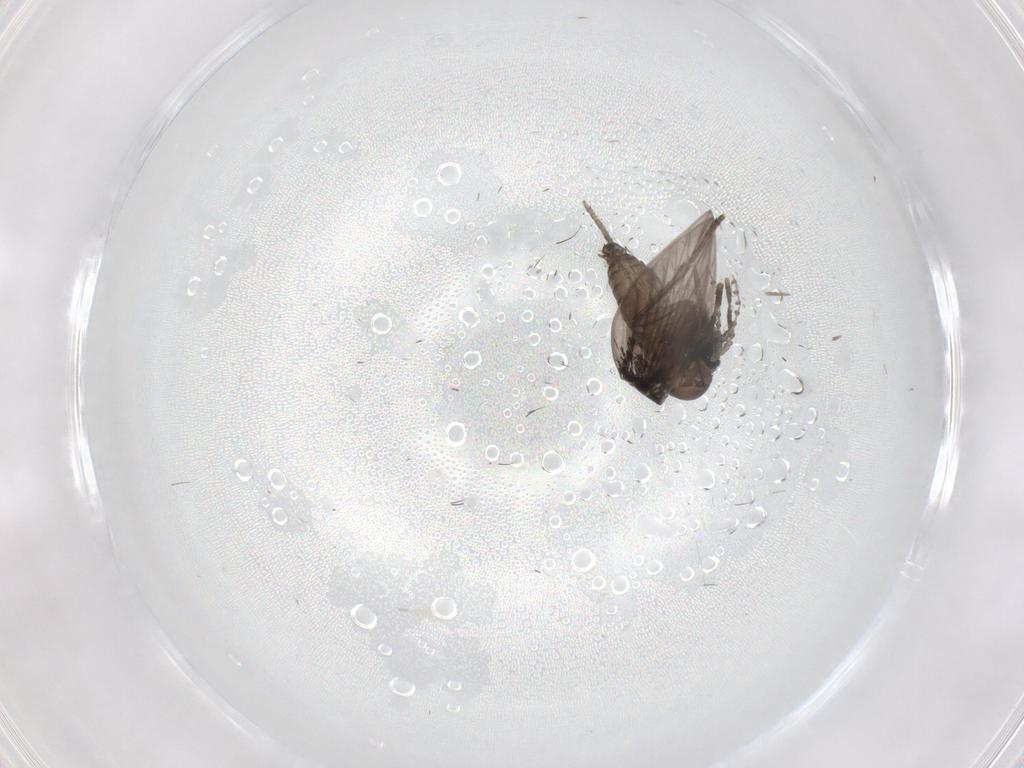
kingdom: Animalia
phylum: Arthropoda
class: Insecta
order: Diptera
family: Psychodidae
